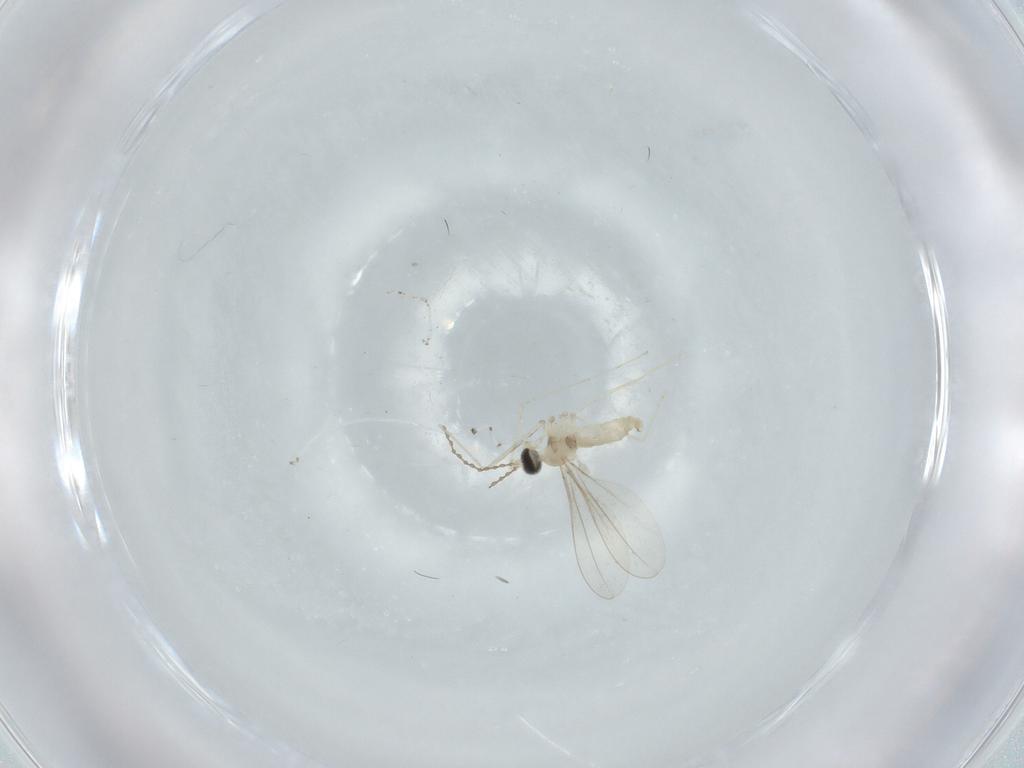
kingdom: Animalia
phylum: Arthropoda
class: Insecta
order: Diptera
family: Cecidomyiidae
